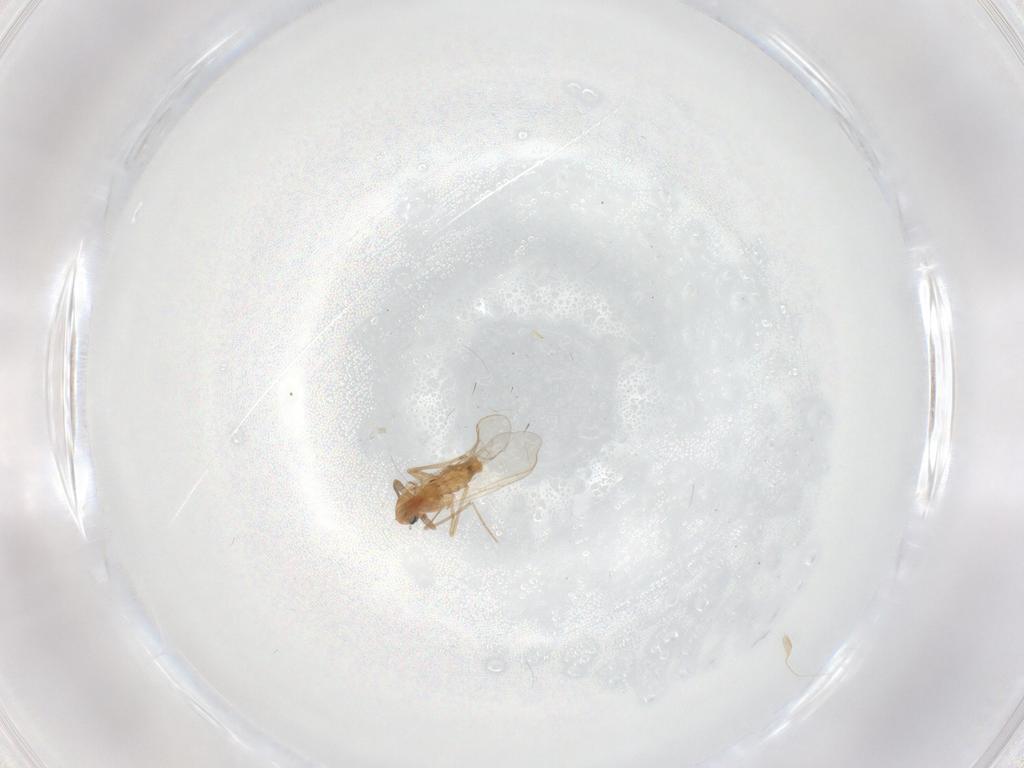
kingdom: Animalia
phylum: Arthropoda
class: Insecta
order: Diptera
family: Chironomidae
